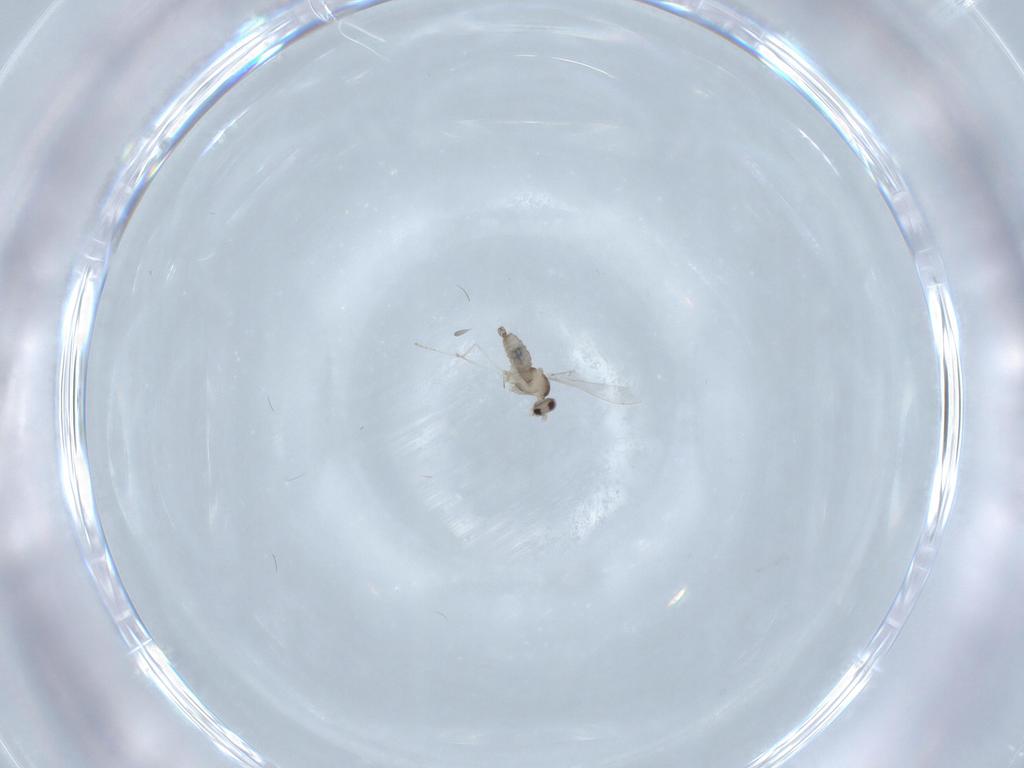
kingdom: Animalia
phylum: Arthropoda
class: Insecta
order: Diptera
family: Cecidomyiidae
